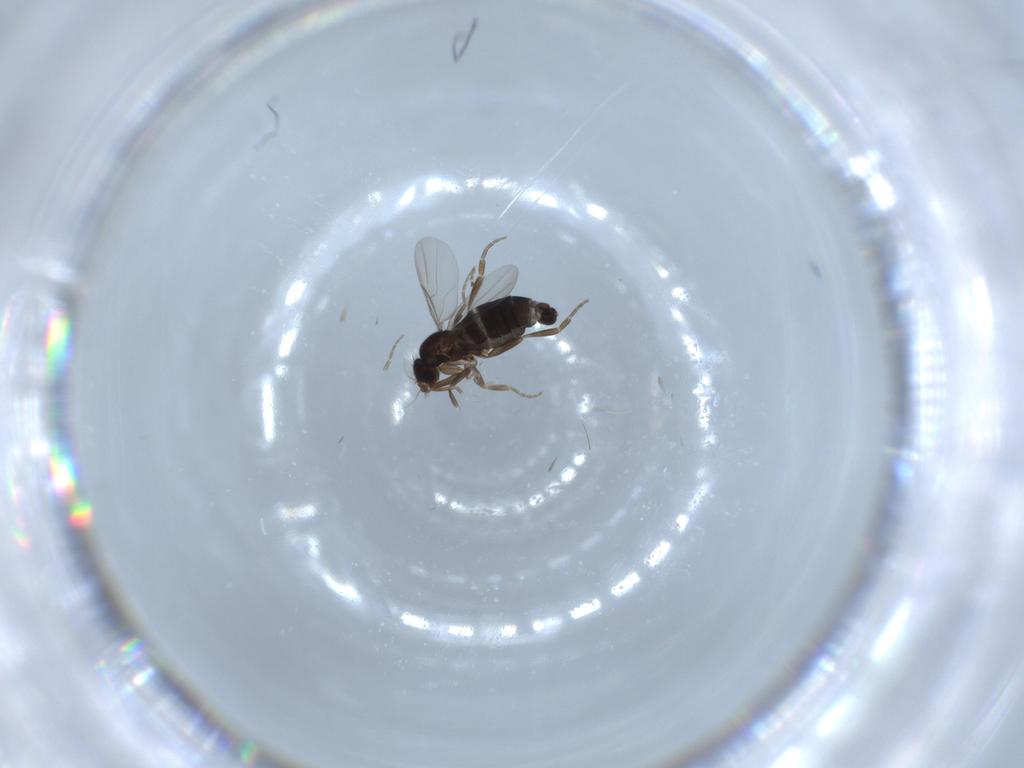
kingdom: Animalia
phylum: Arthropoda
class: Insecta
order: Diptera
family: Phoridae
